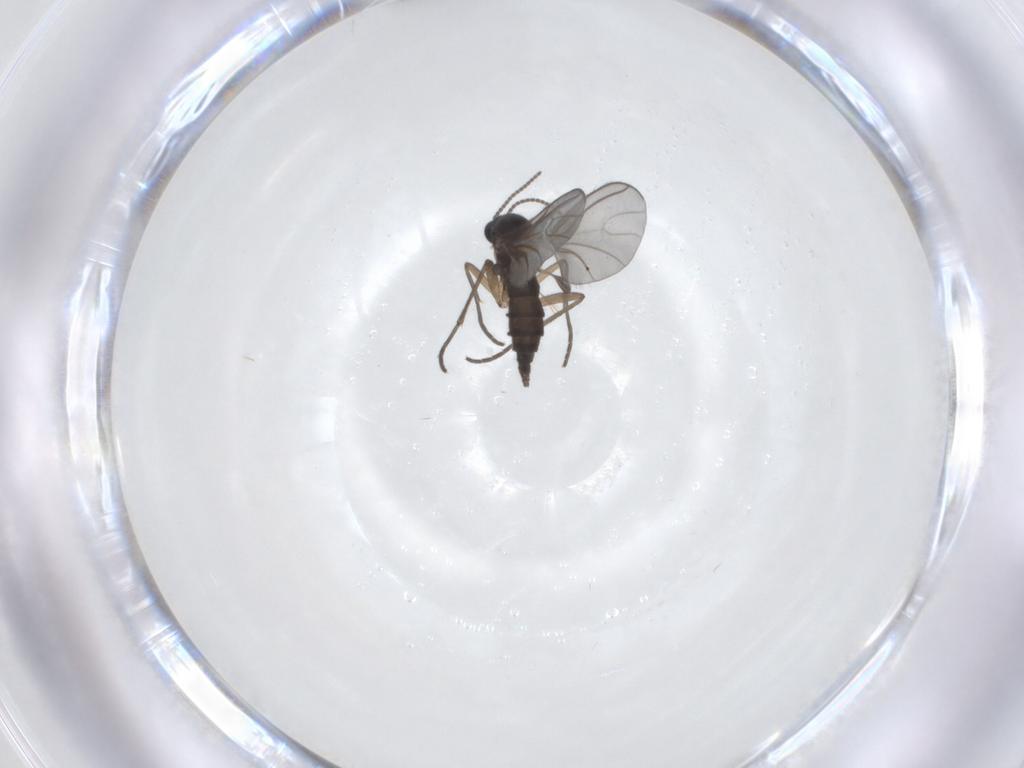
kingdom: Animalia
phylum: Arthropoda
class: Insecta
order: Diptera
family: Sciaridae
